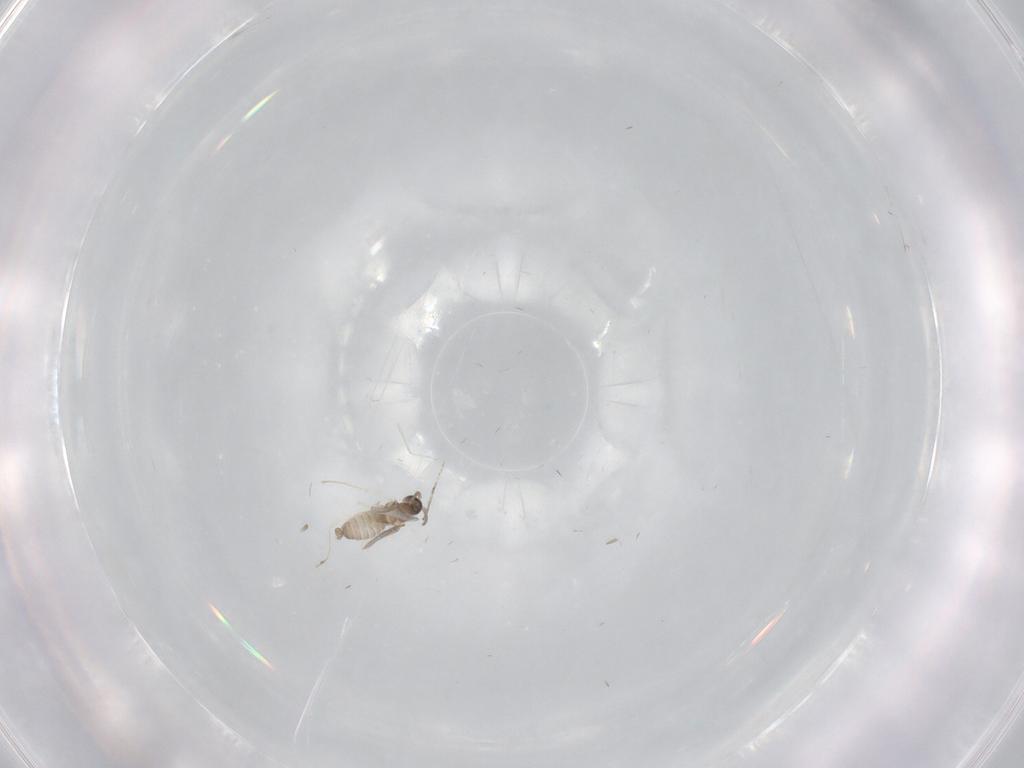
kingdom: Animalia
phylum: Arthropoda
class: Insecta
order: Diptera
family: Cecidomyiidae
